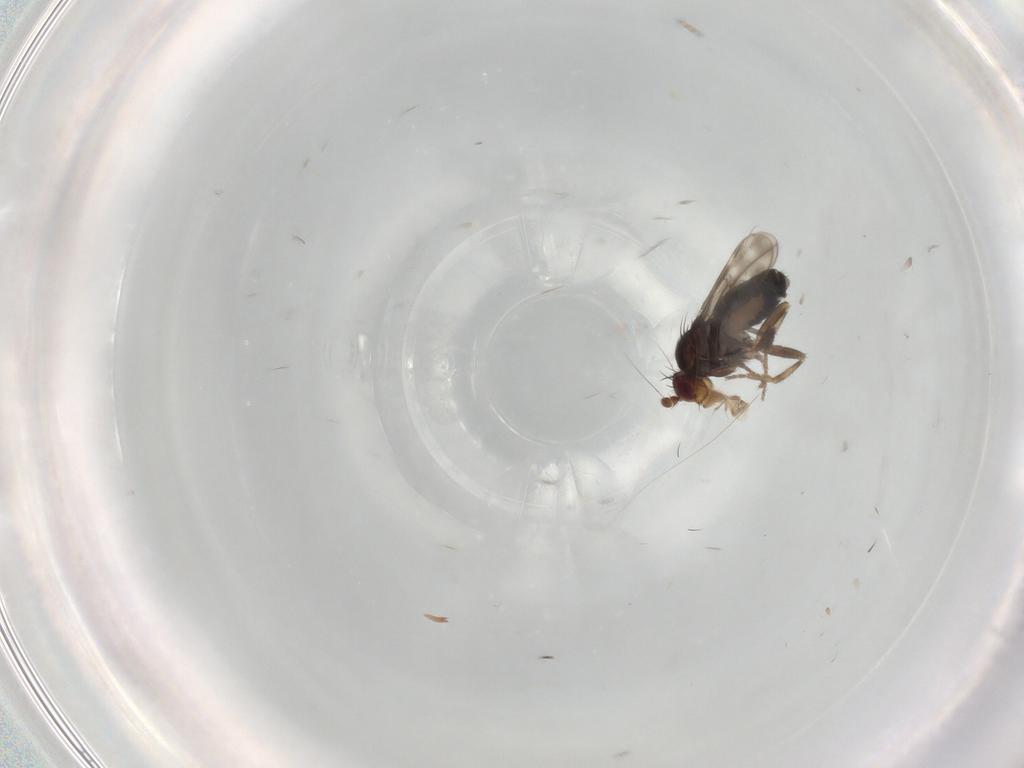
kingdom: Animalia
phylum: Arthropoda
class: Insecta
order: Diptera
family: Sphaeroceridae
